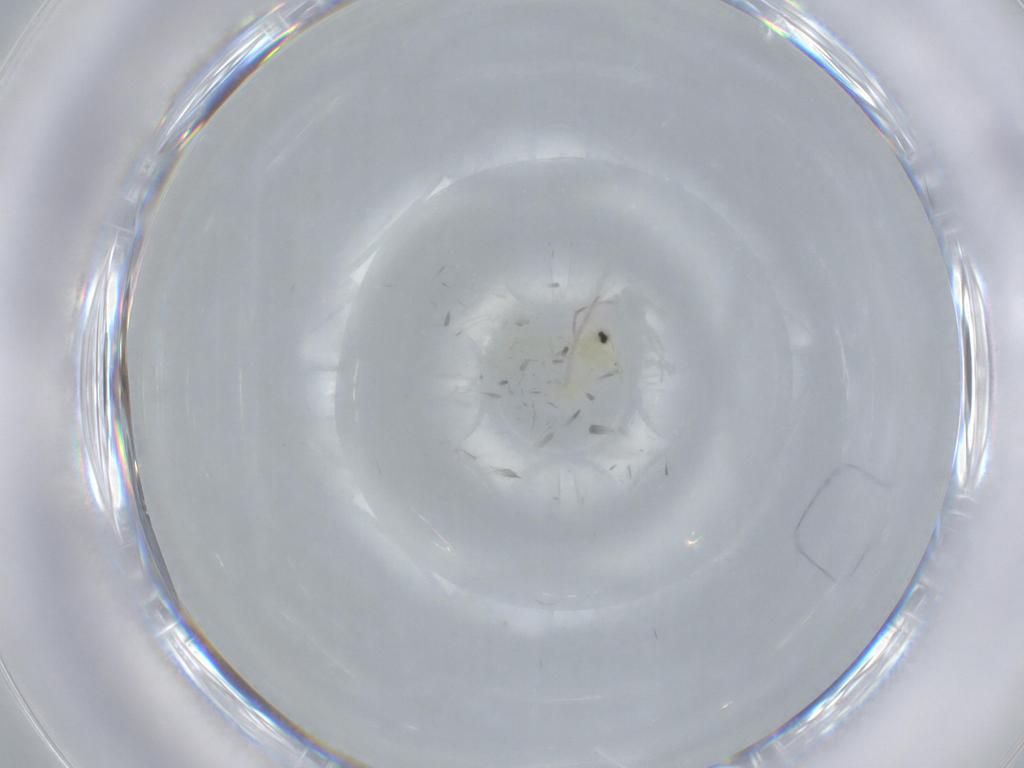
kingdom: Animalia
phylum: Arthropoda
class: Insecta
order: Hemiptera
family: Aleyrodidae
